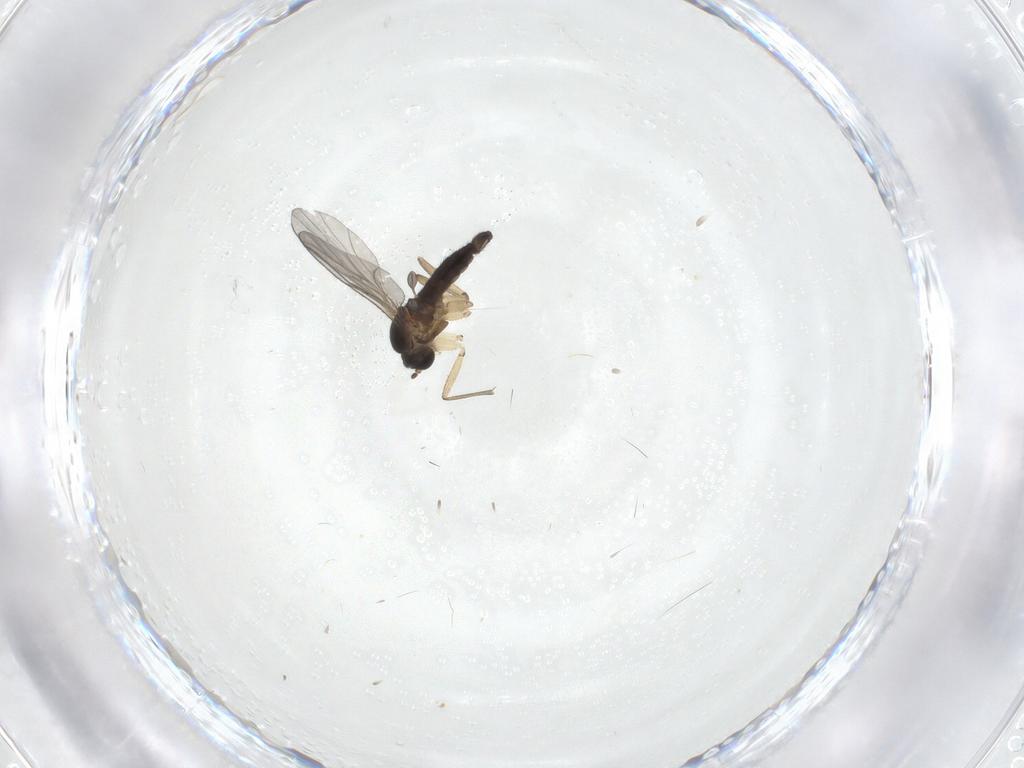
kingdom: Animalia
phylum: Arthropoda
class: Insecta
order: Diptera
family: Sciaridae
